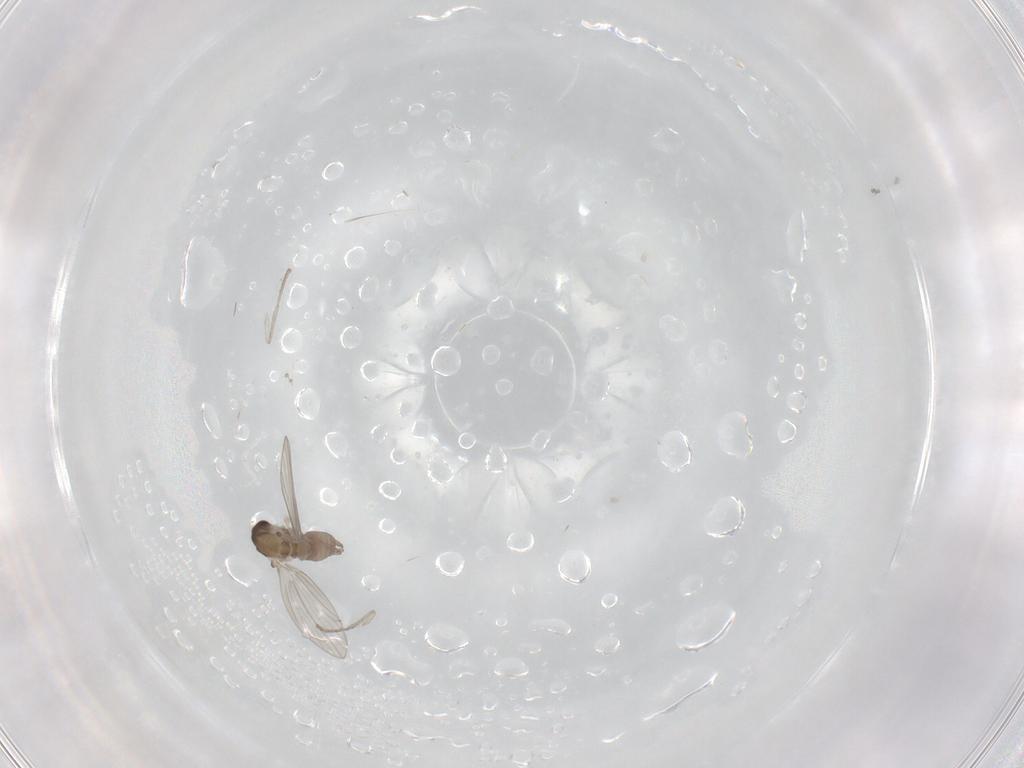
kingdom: Animalia
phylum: Arthropoda
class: Insecta
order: Diptera
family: Psychodidae
